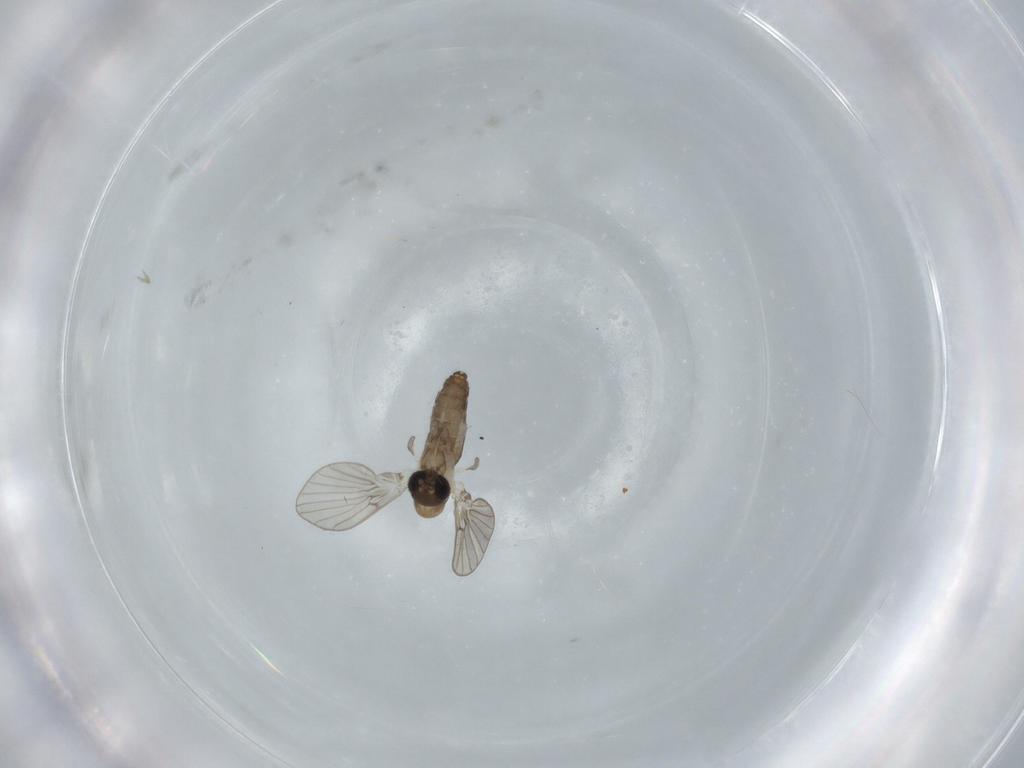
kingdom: Animalia
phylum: Arthropoda
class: Insecta
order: Diptera
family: Psychodidae
